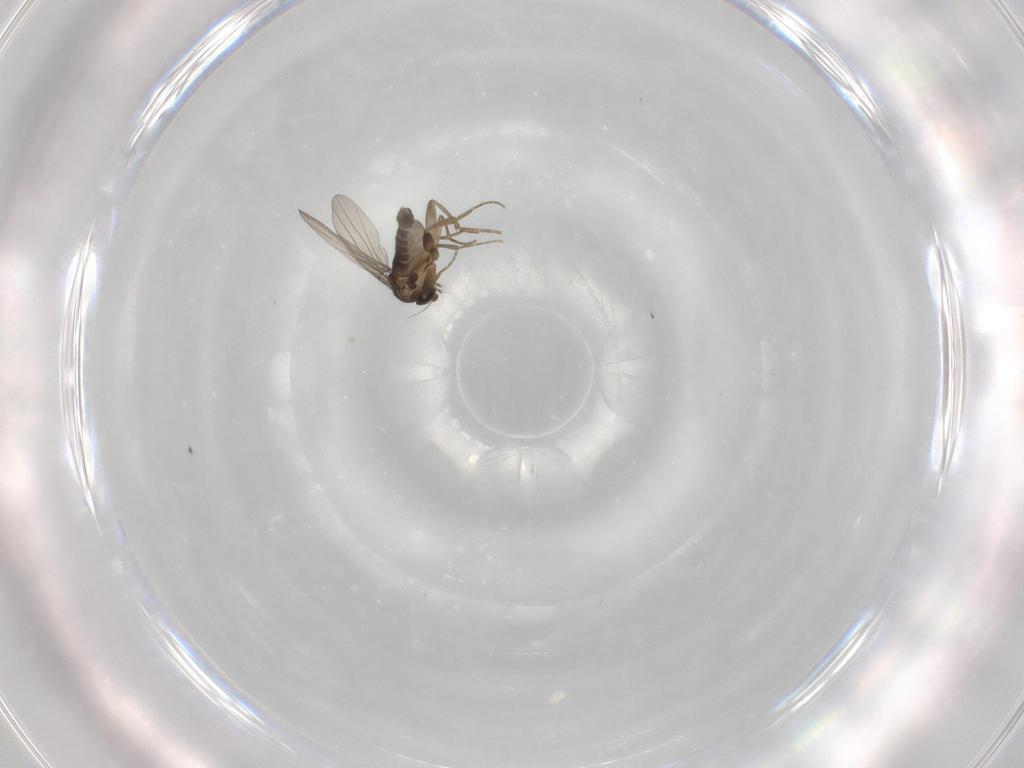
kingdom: Animalia
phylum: Arthropoda
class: Insecta
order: Diptera
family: Phoridae
